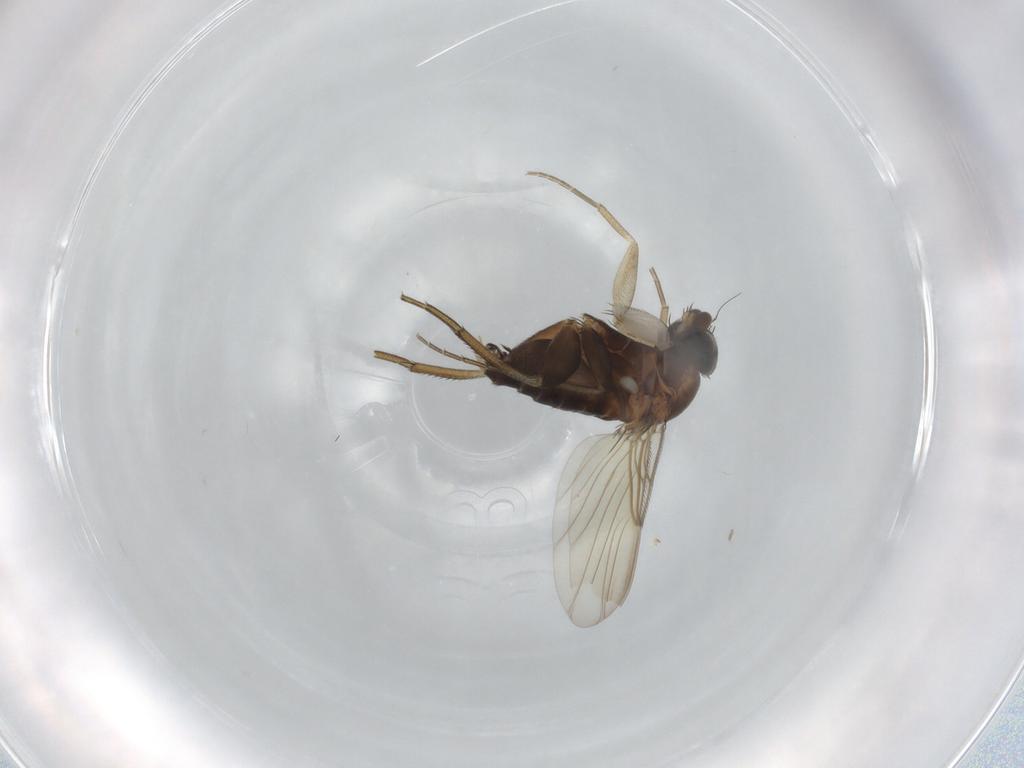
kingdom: Animalia
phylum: Arthropoda
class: Insecta
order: Diptera
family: Phoridae
